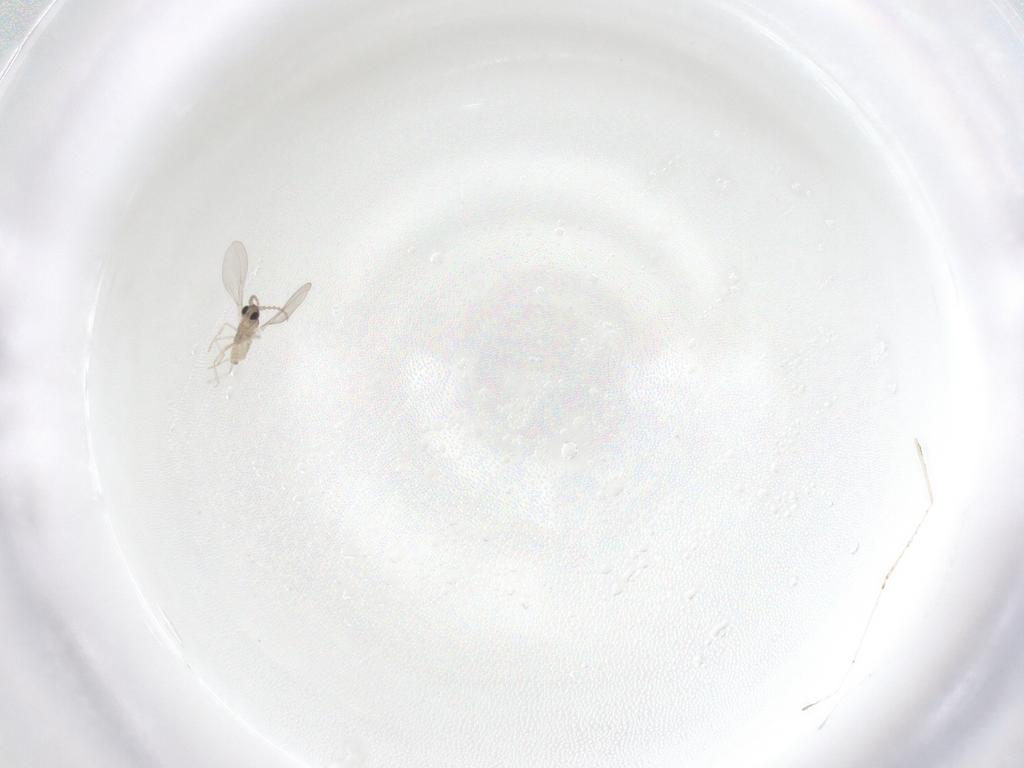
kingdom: Animalia
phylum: Arthropoda
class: Insecta
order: Diptera
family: Cecidomyiidae
